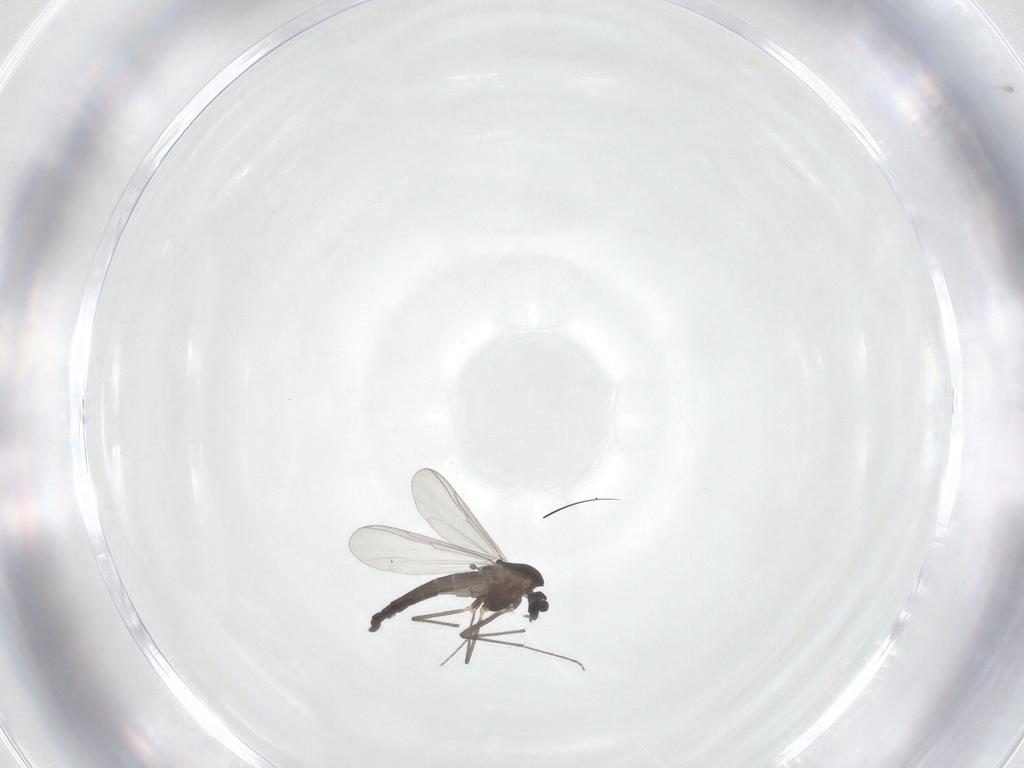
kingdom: Animalia
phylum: Arthropoda
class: Insecta
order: Diptera
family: Chironomidae
